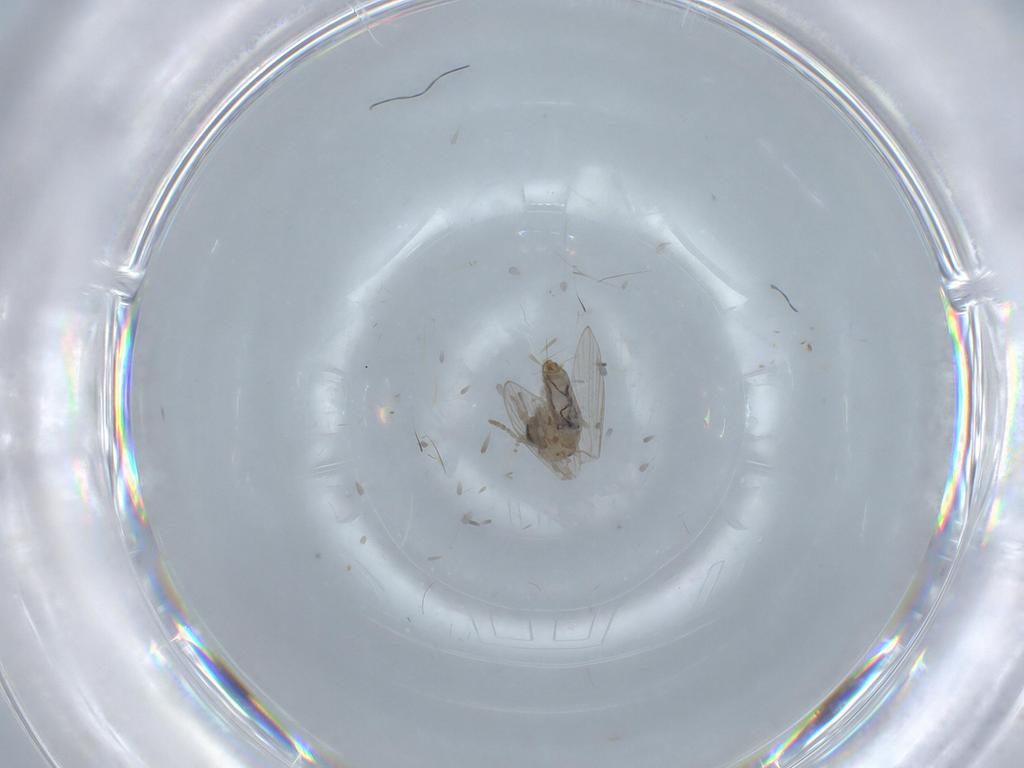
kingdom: Animalia
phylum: Arthropoda
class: Insecta
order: Diptera
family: Psychodidae
